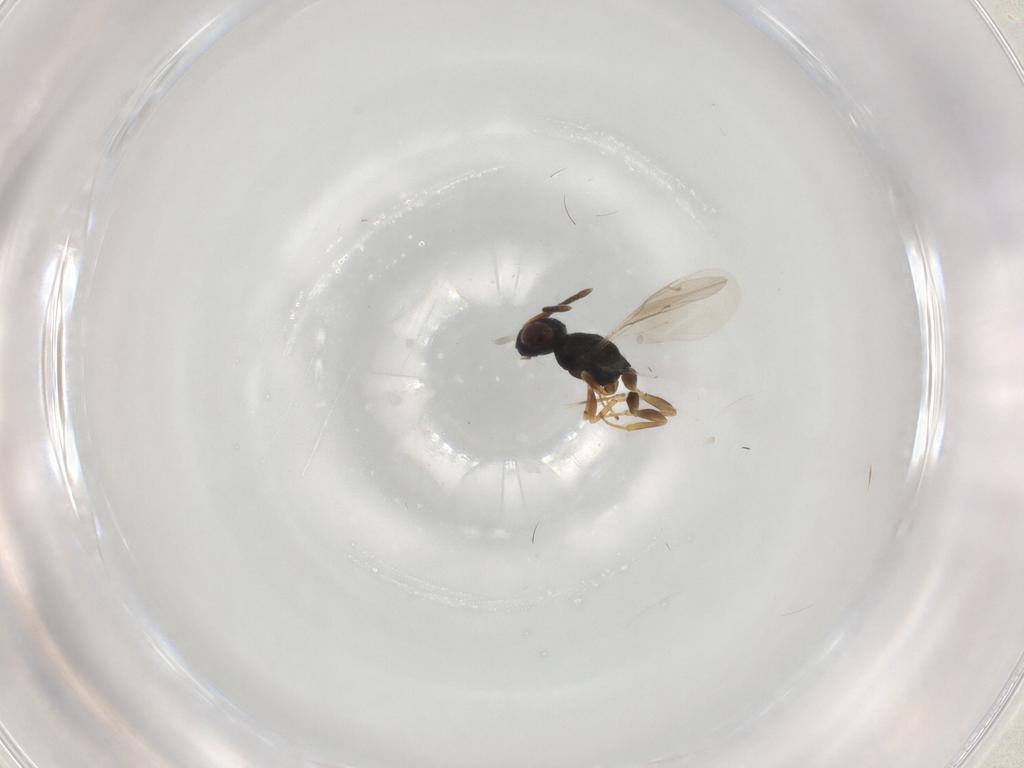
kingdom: Animalia
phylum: Arthropoda
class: Insecta
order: Hymenoptera
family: Pteromalidae
